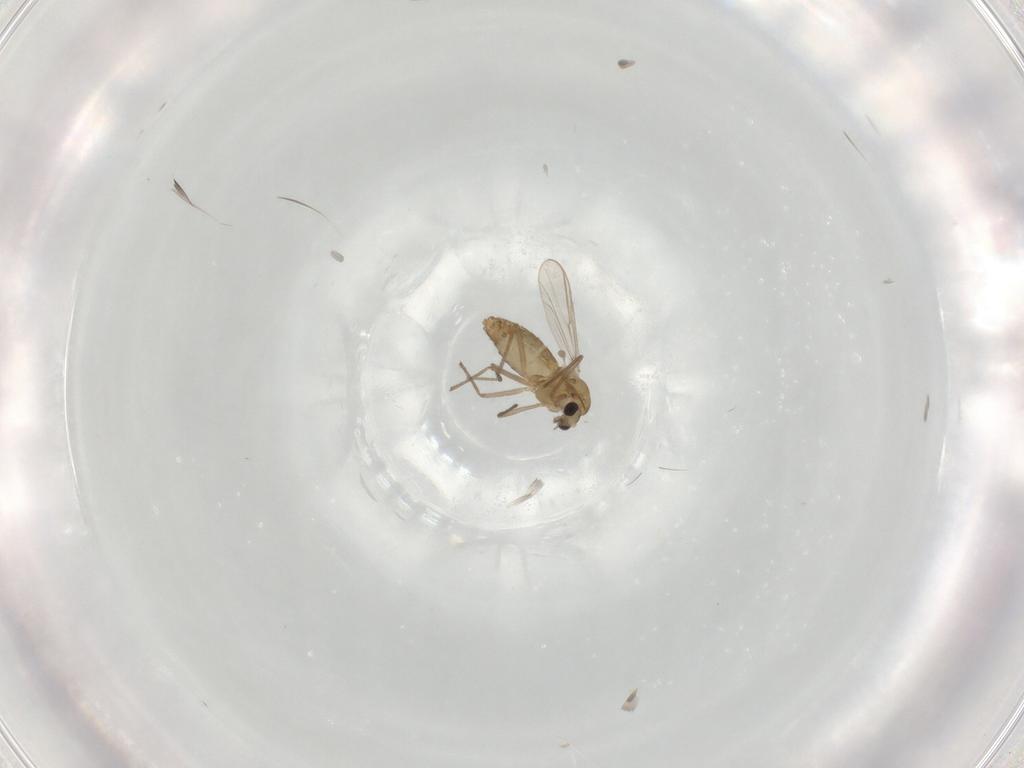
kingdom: Animalia
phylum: Arthropoda
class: Insecta
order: Diptera
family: Chironomidae
